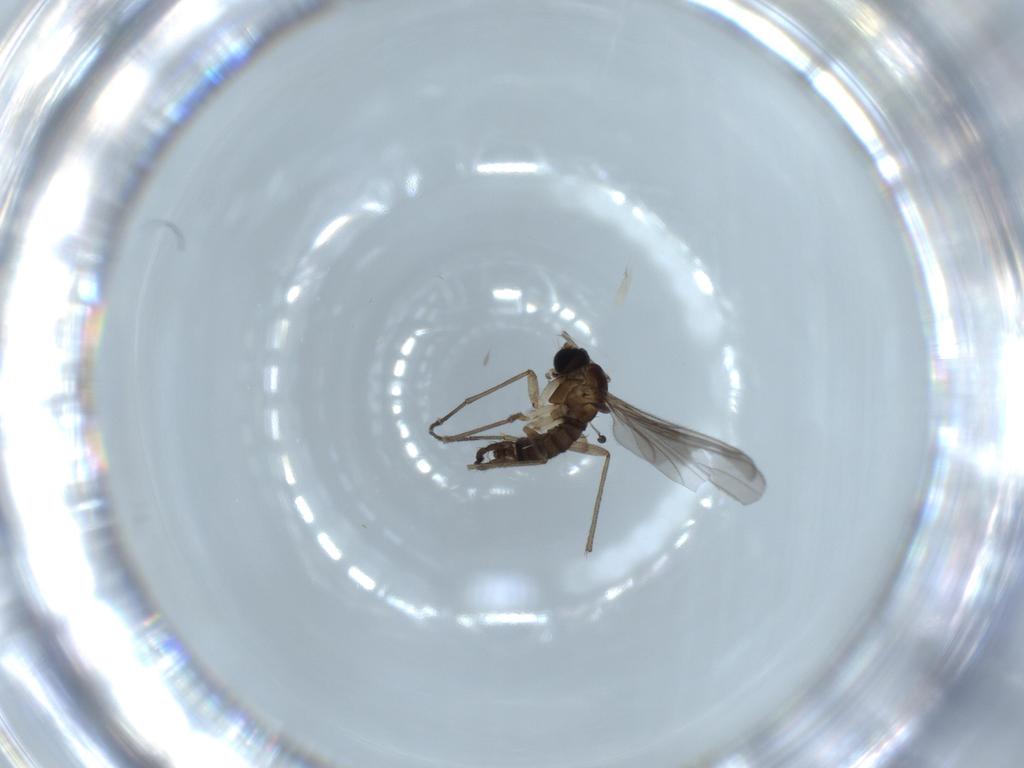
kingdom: Animalia
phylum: Arthropoda
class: Insecta
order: Diptera
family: Sciaridae
